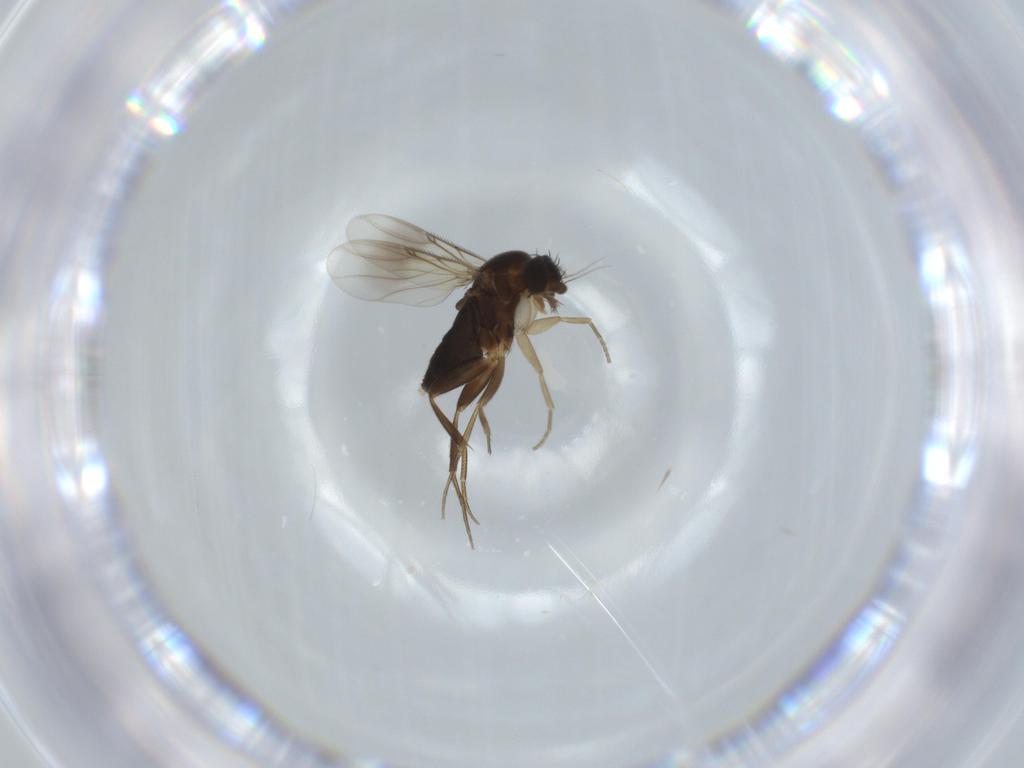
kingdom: Animalia
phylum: Arthropoda
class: Insecta
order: Diptera
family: Phoridae
